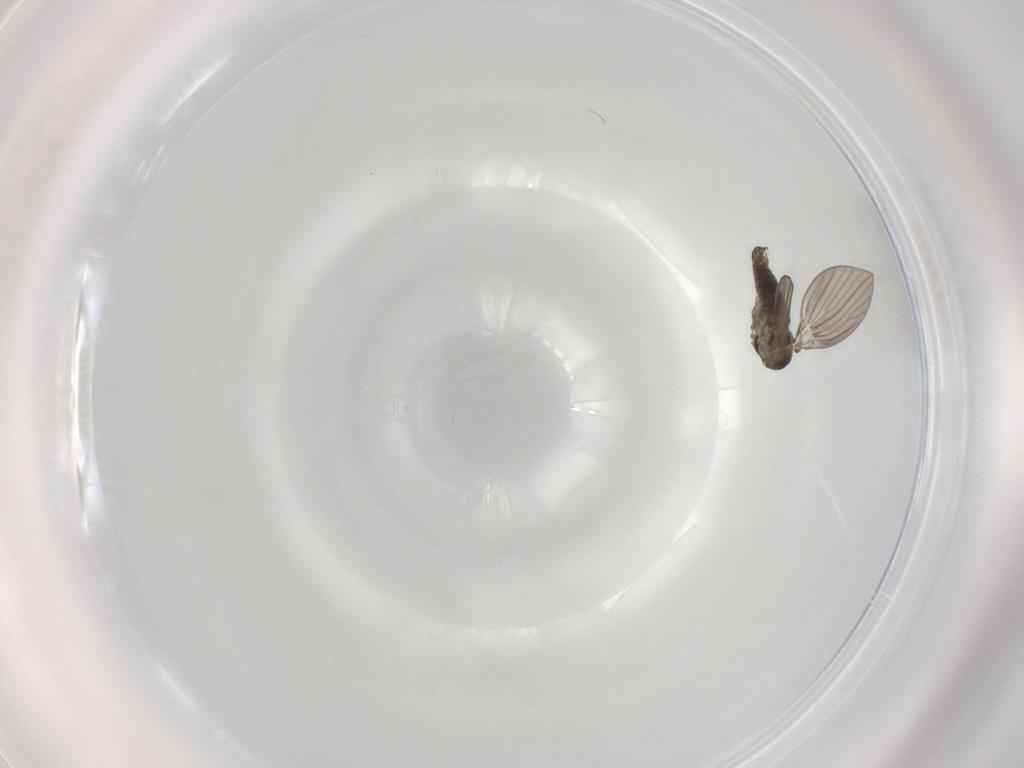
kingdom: Animalia
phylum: Arthropoda
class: Insecta
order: Diptera
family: Psychodidae
